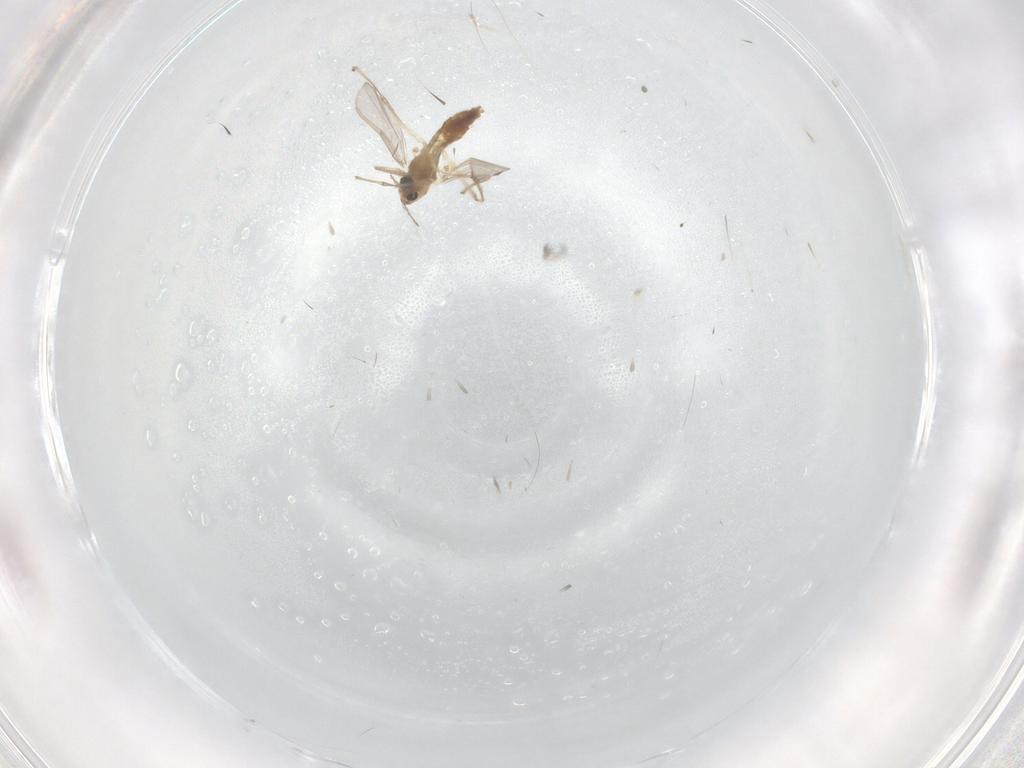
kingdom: Animalia
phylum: Arthropoda
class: Insecta
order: Diptera
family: Chironomidae
